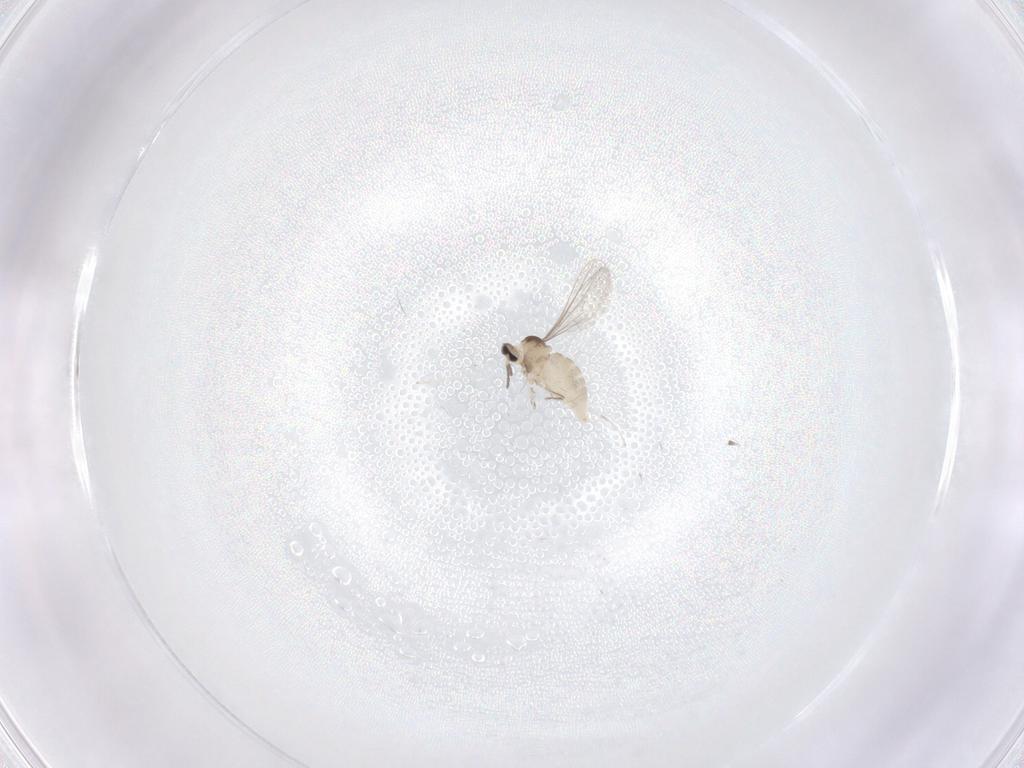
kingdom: Animalia
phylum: Arthropoda
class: Insecta
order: Diptera
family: Cecidomyiidae
